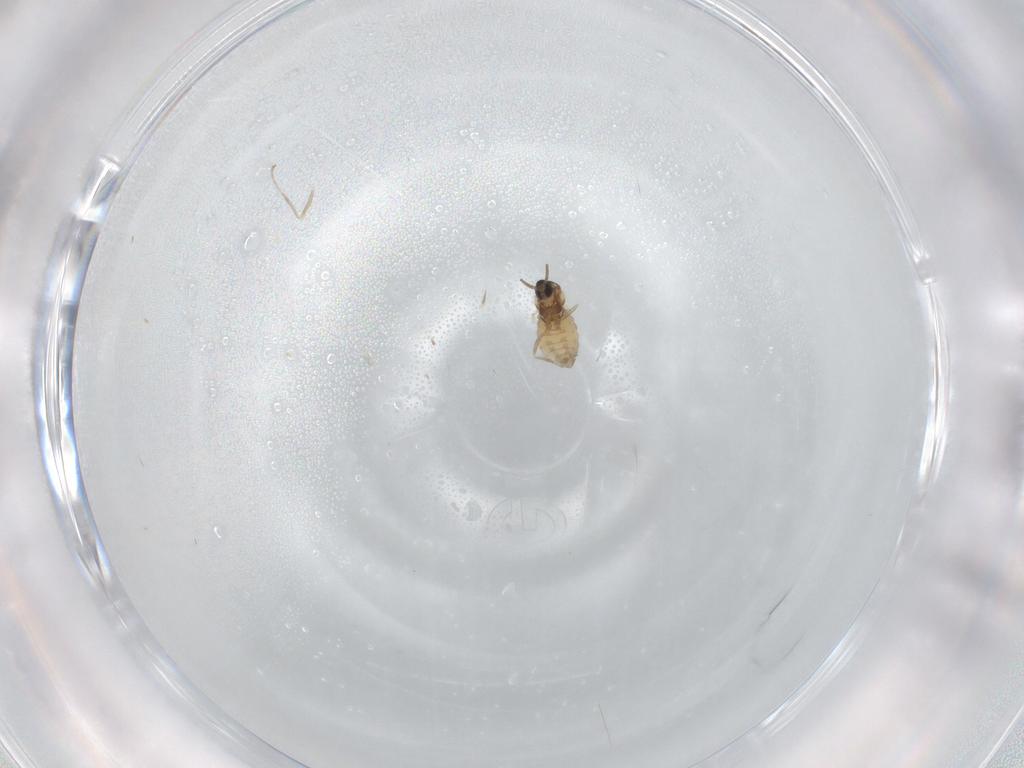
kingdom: Animalia
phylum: Arthropoda
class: Insecta
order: Diptera
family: Cecidomyiidae
